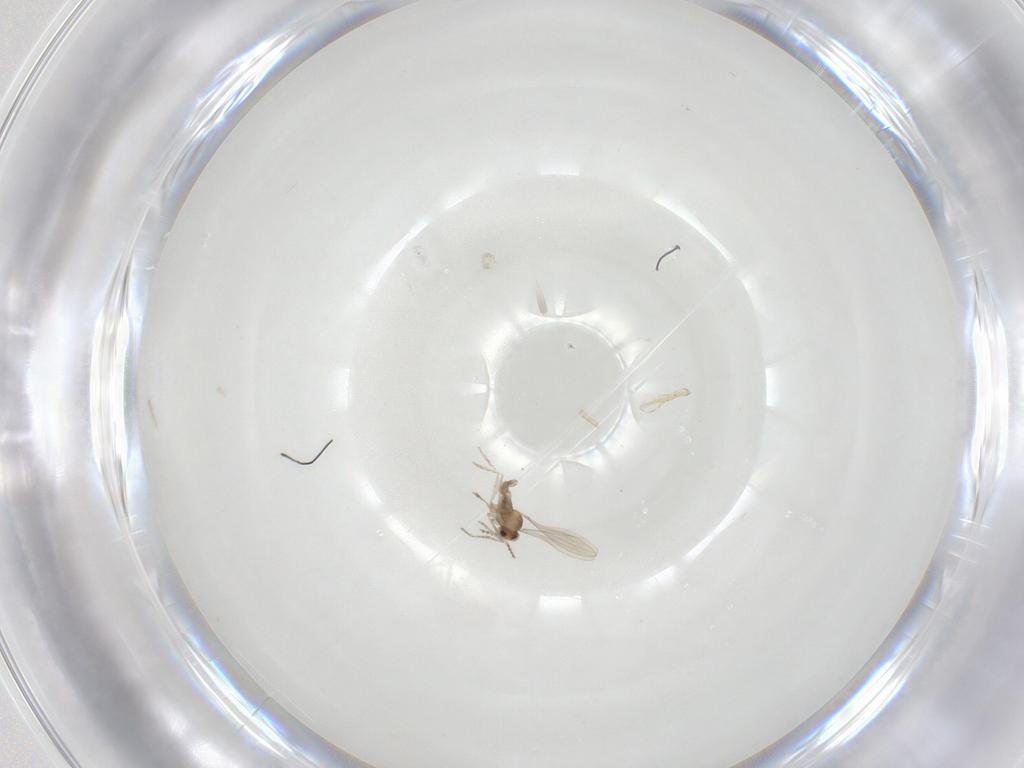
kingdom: Animalia
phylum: Arthropoda
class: Insecta
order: Diptera
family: Cecidomyiidae
